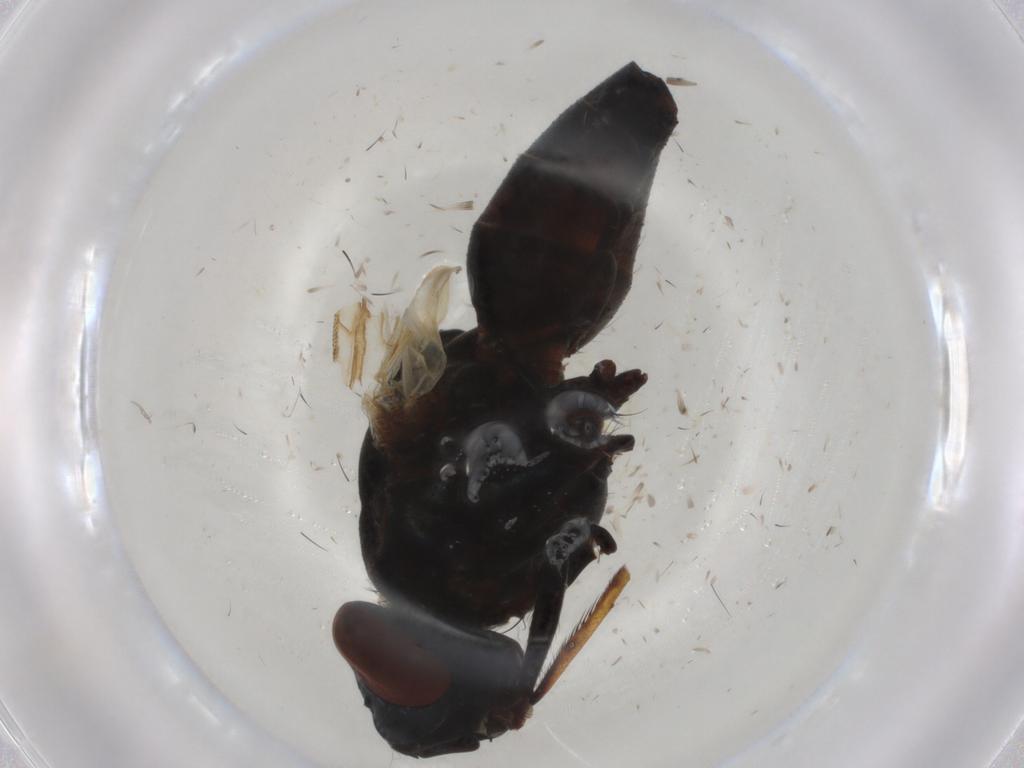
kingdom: Animalia
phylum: Arthropoda
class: Insecta
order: Diptera
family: Sarcophagidae
